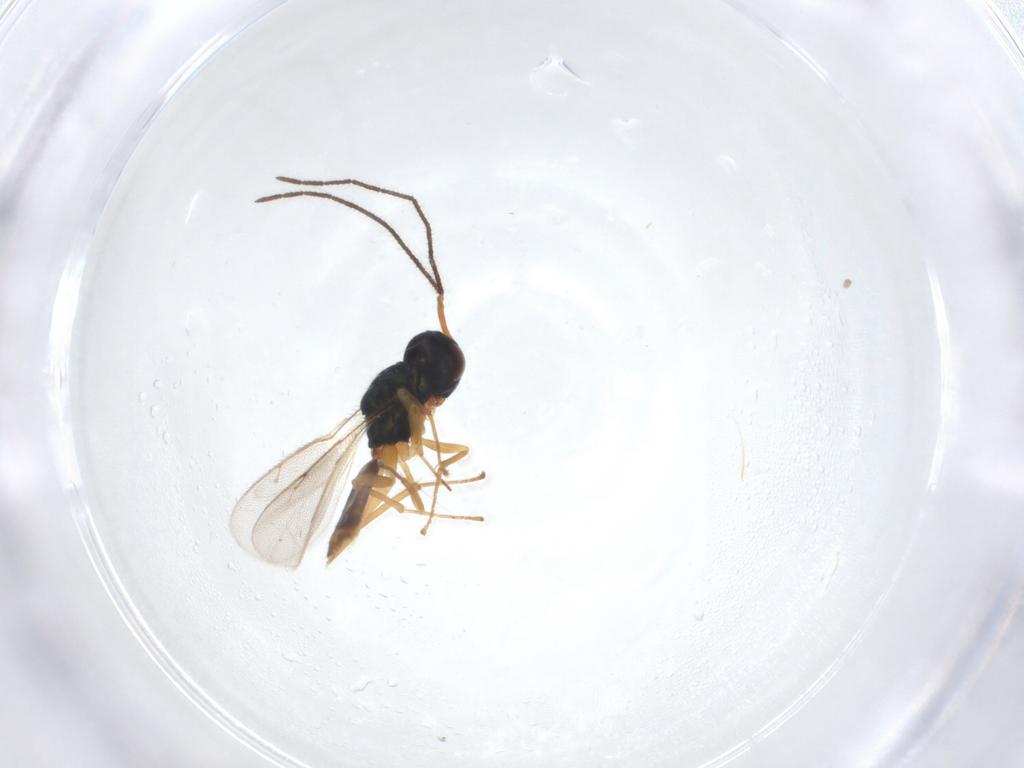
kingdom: Animalia
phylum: Arthropoda
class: Insecta
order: Hymenoptera
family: Pteromalidae
